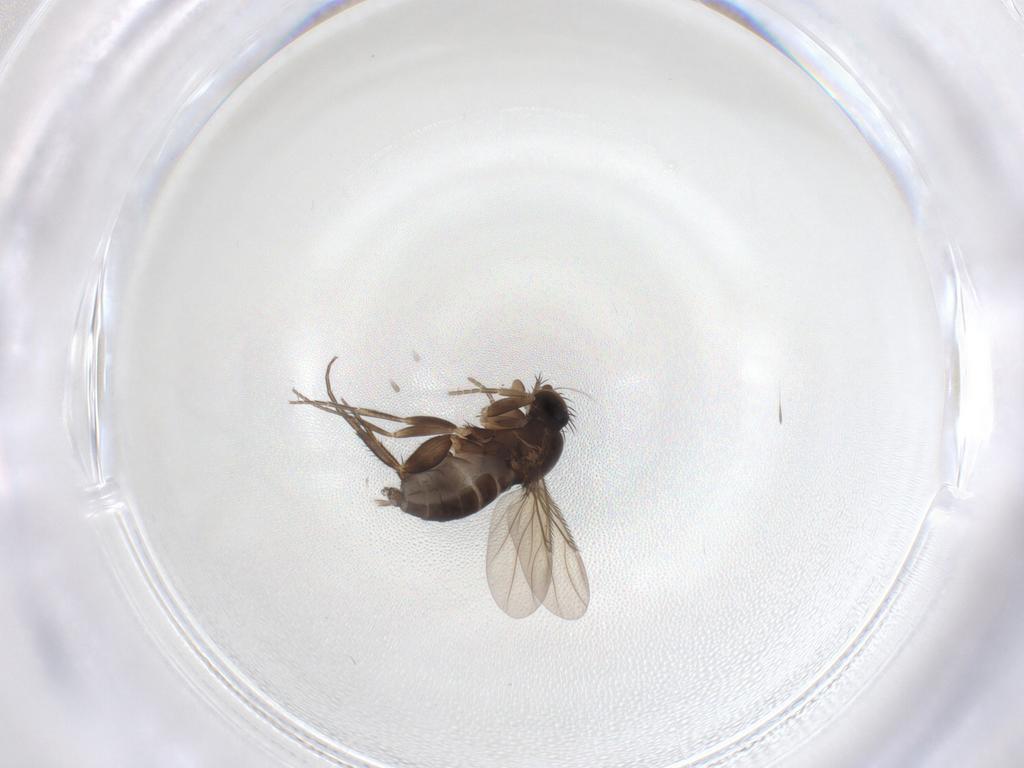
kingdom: Animalia
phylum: Arthropoda
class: Insecta
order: Diptera
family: Phoridae
